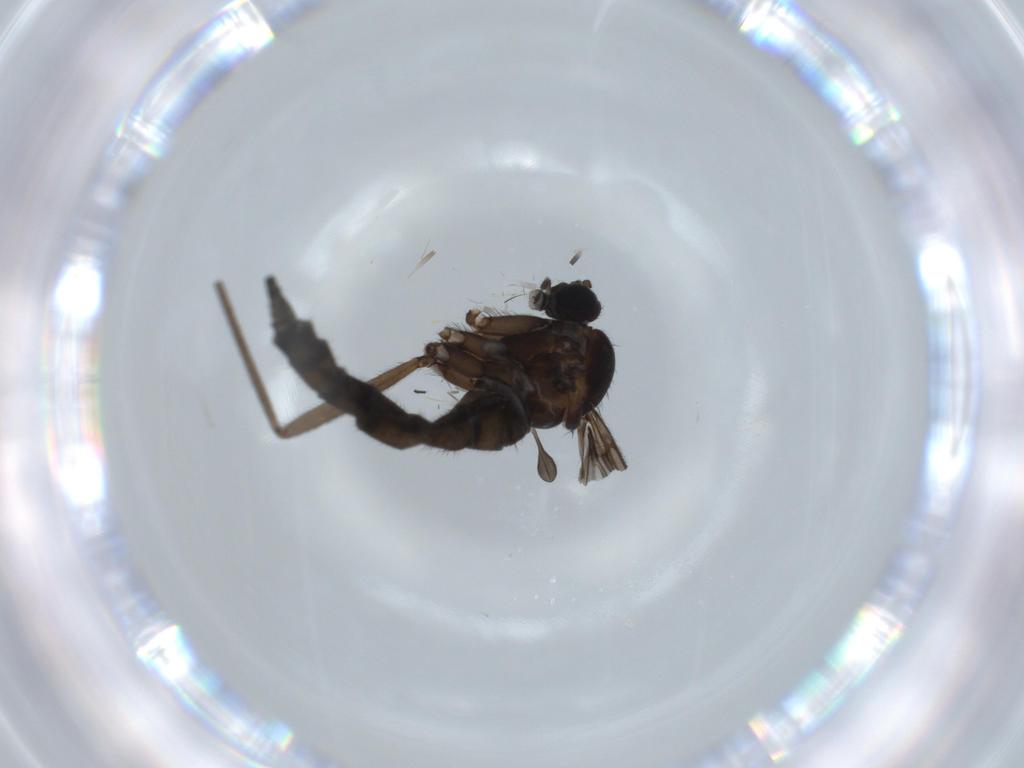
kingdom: Animalia
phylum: Arthropoda
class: Insecta
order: Diptera
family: Sciaridae
